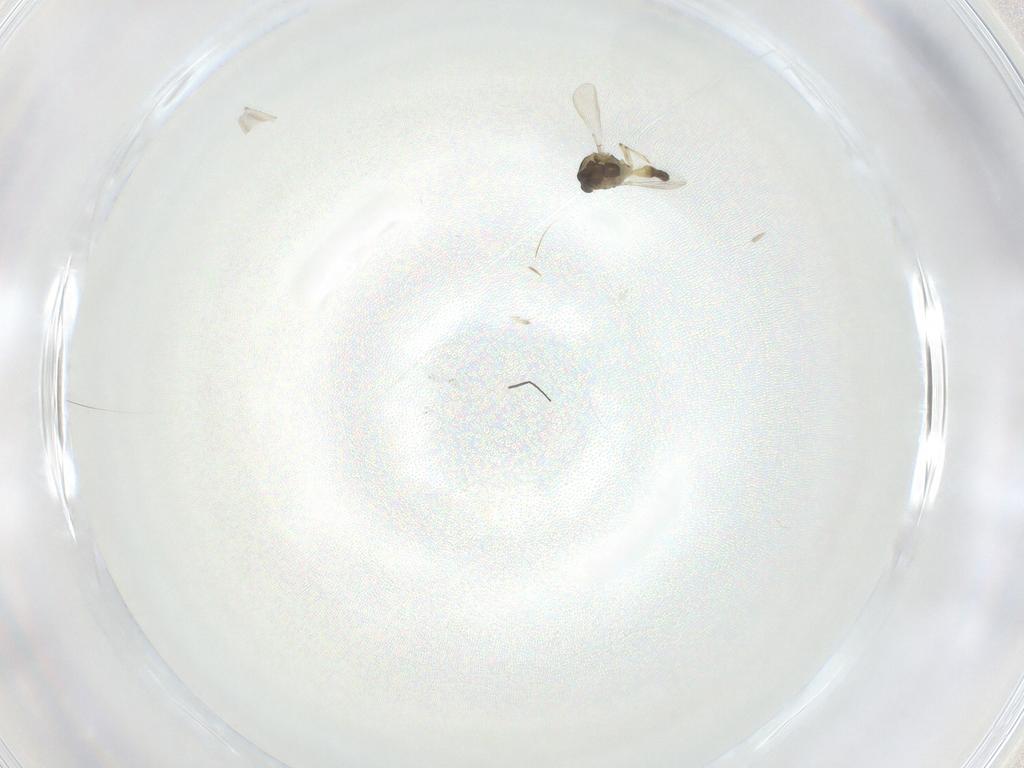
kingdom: Animalia
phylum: Arthropoda
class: Insecta
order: Diptera
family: Chironomidae
